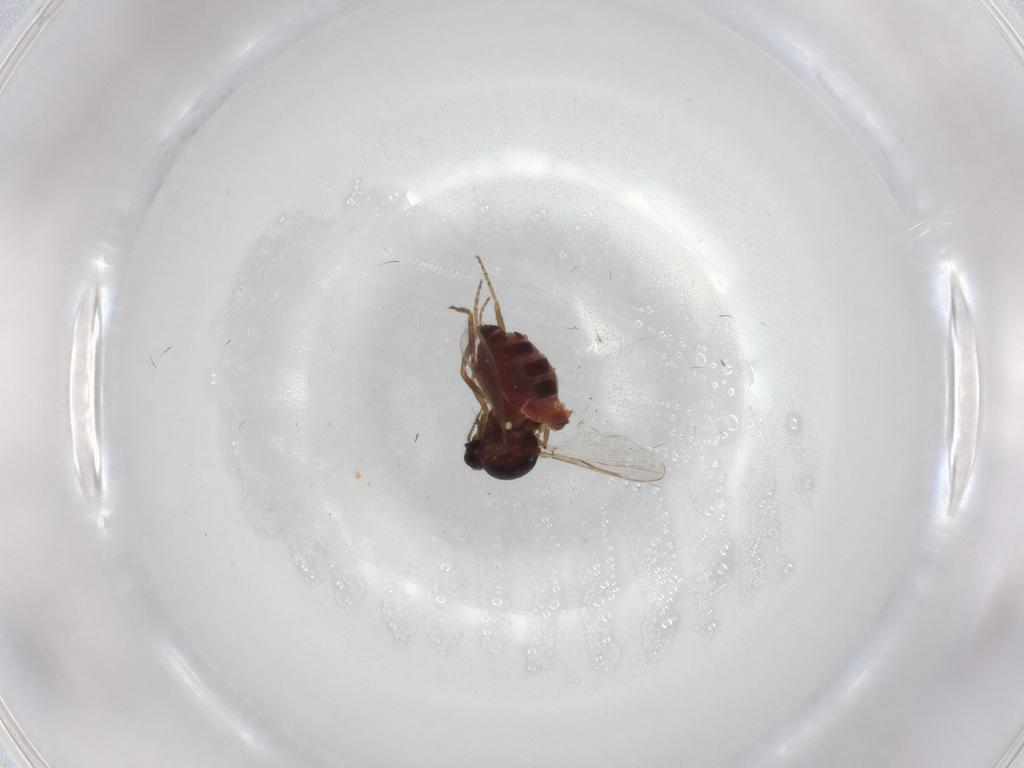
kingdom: Animalia
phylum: Arthropoda
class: Insecta
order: Diptera
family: Ceratopogonidae
